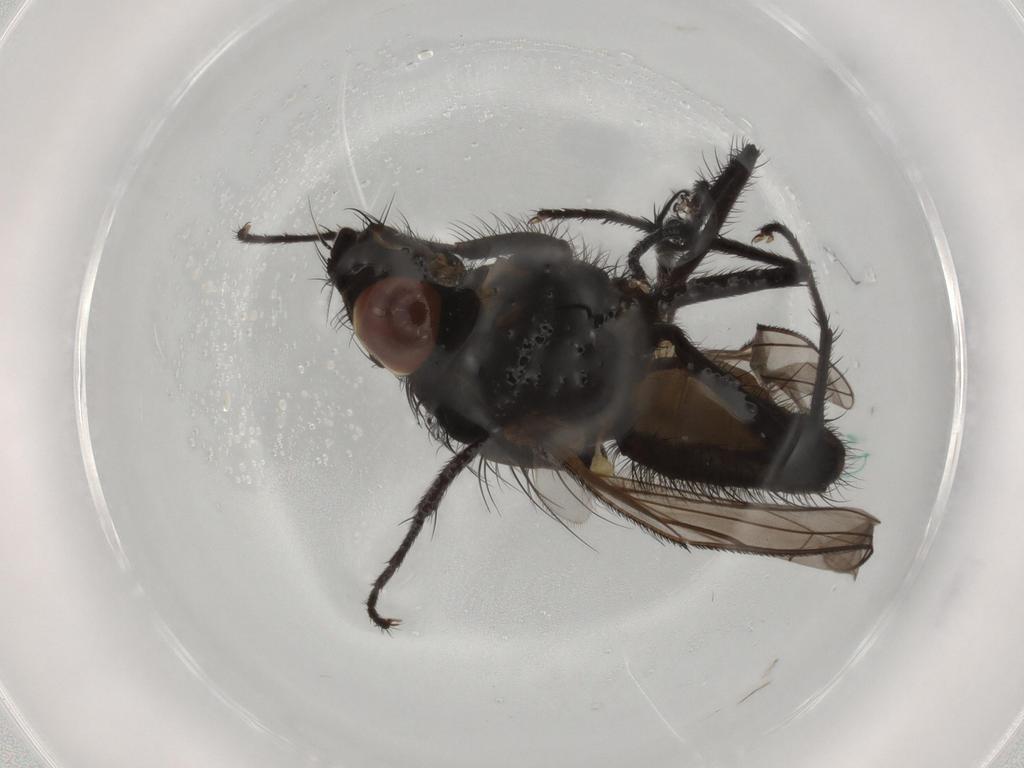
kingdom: Animalia
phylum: Arthropoda
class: Insecta
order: Diptera
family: Anthomyiidae
